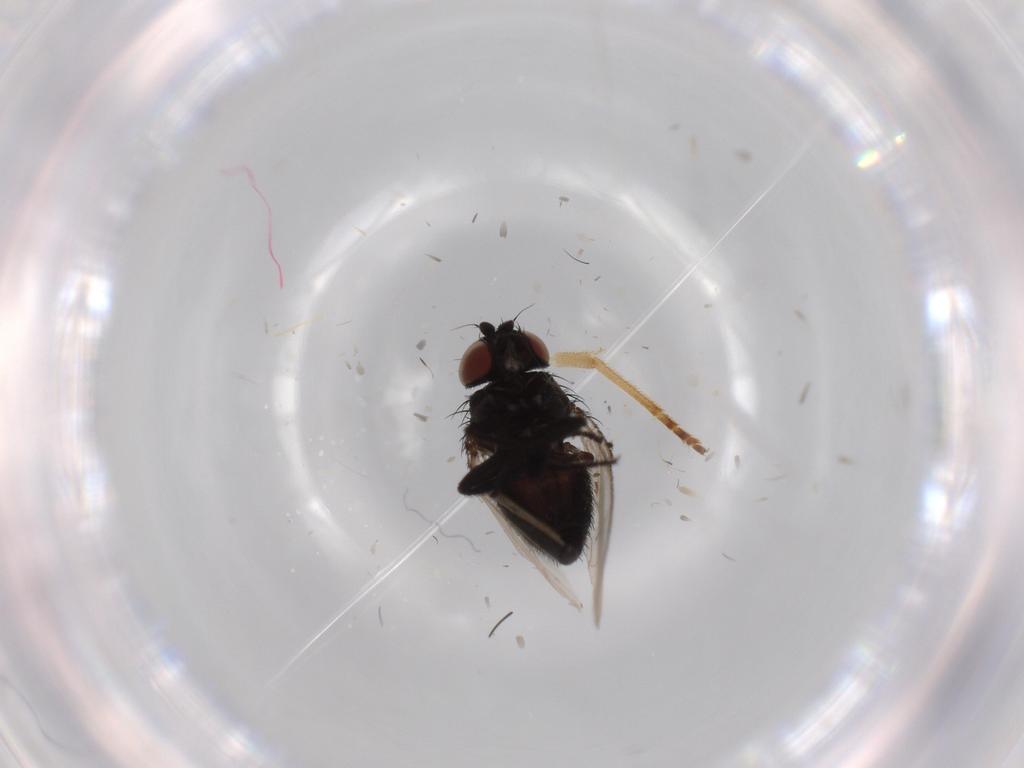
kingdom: Animalia
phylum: Arthropoda
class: Insecta
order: Diptera
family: Xylomyidae
